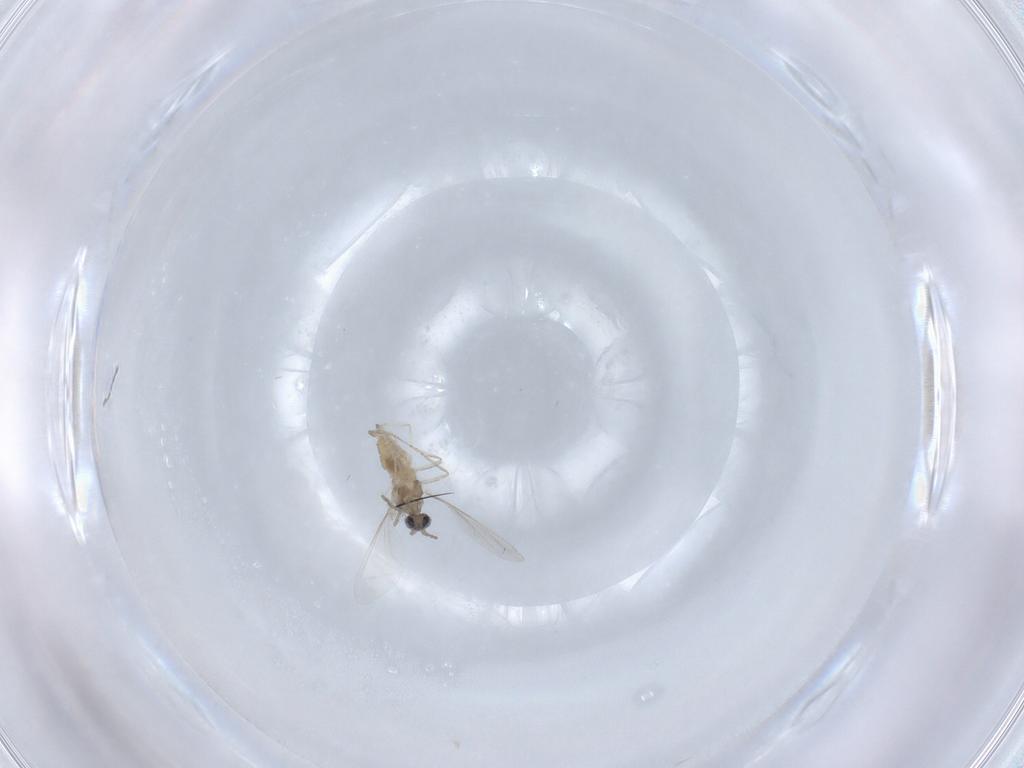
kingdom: Animalia
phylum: Arthropoda
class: Insecta
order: Diptera
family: Cecidomyiidae
